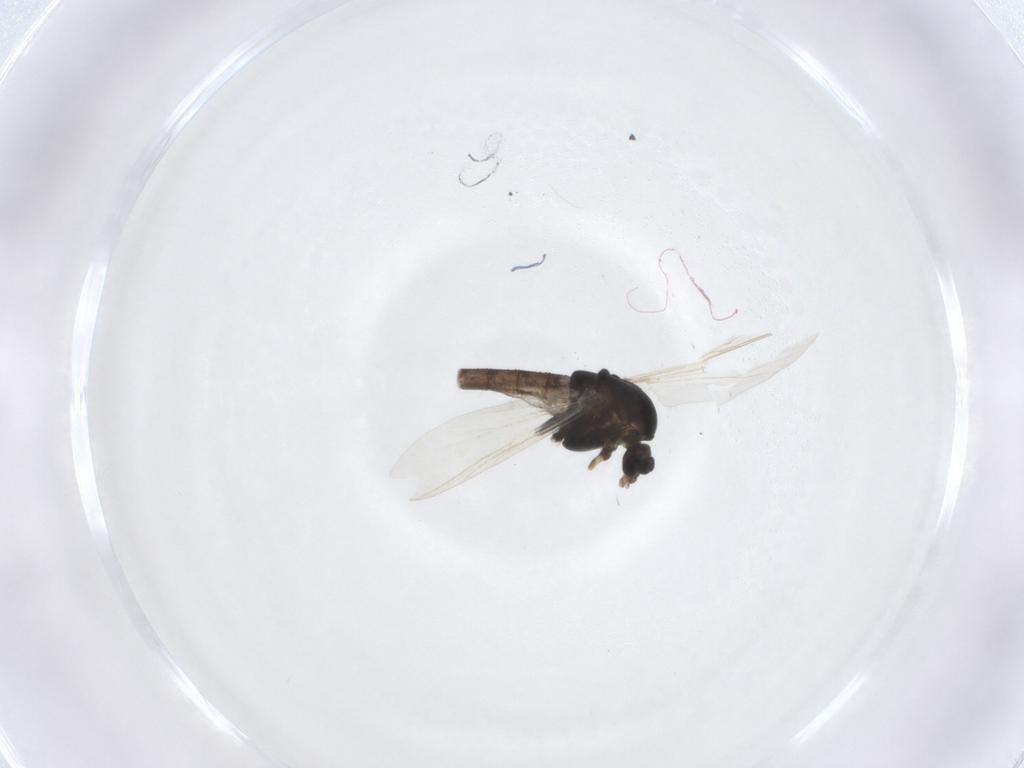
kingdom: Animalia
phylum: Arthropoda
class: Insecta
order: Diptera
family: Chironomidae
